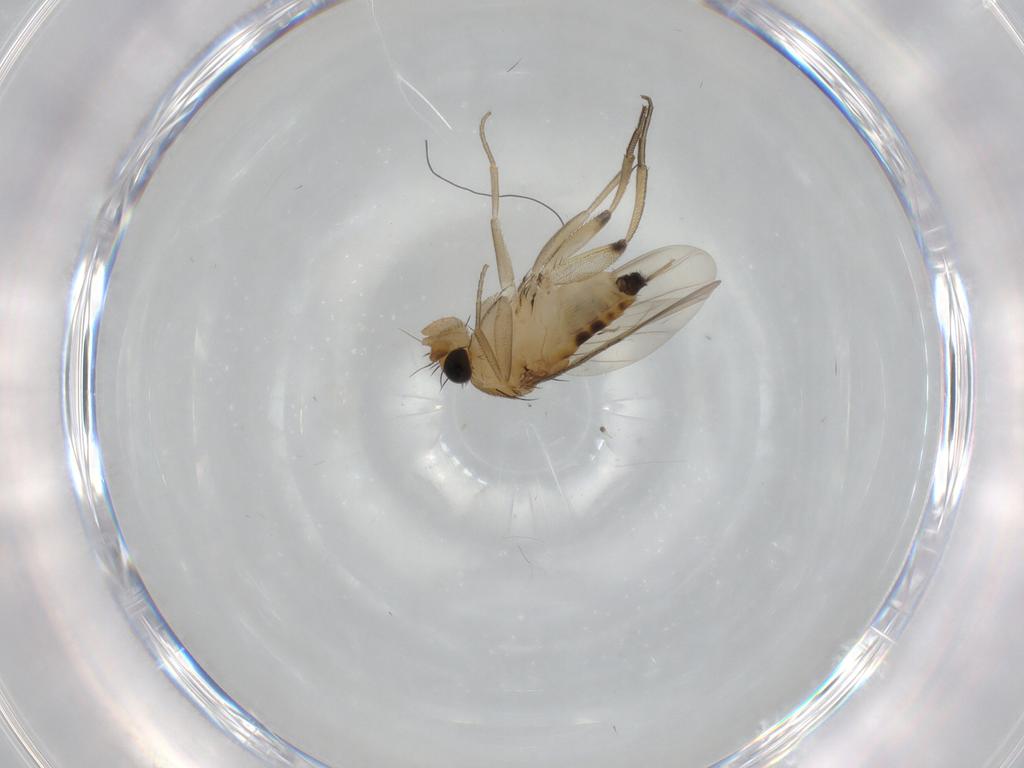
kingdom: Animalia
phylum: Arthropoda
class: Insecta
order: Diptera
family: Phoridae
